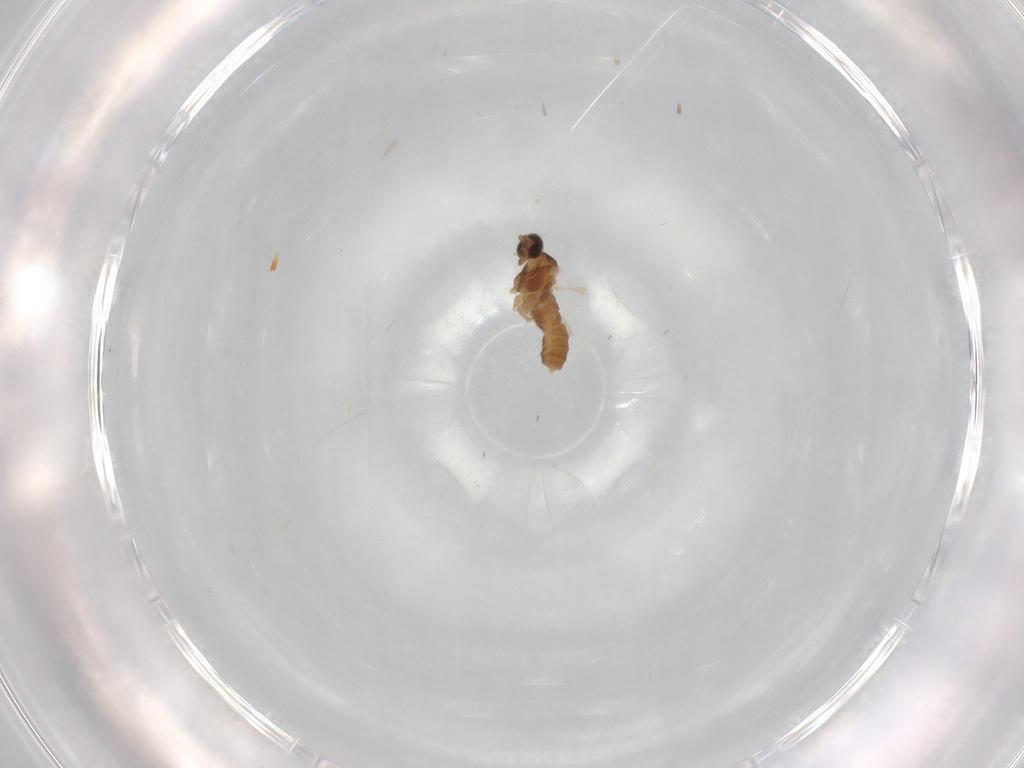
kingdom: Animalia
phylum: Arthropoda
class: Insecta
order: Diptera
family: Cecidomyiidae
